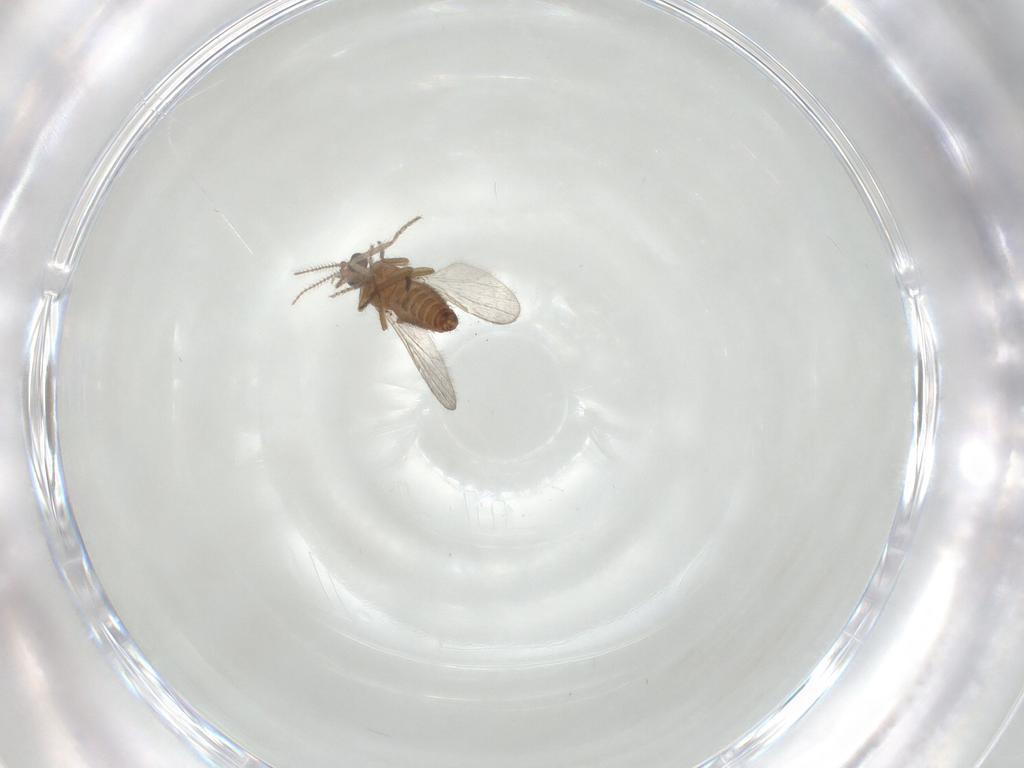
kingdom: Animalia
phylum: Arthropoda
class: Insecta
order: Diptera
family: Ceratopogonidae
